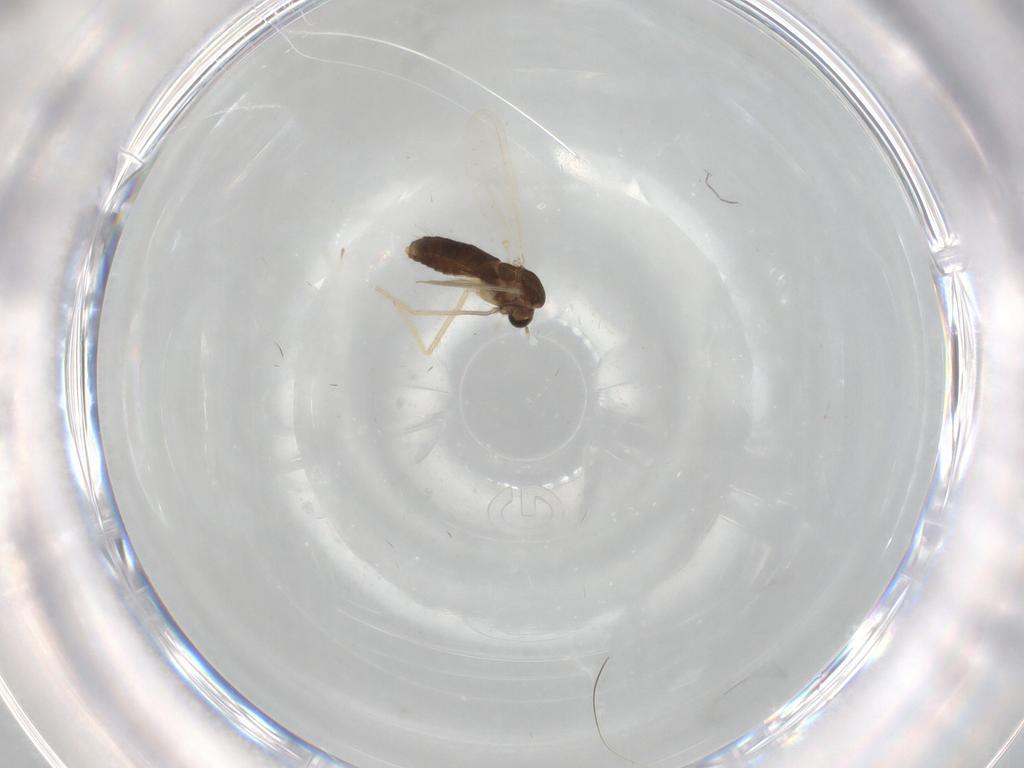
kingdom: Animalia
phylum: Arthropoda
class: Insecta
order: Diptera
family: Chironomidae
